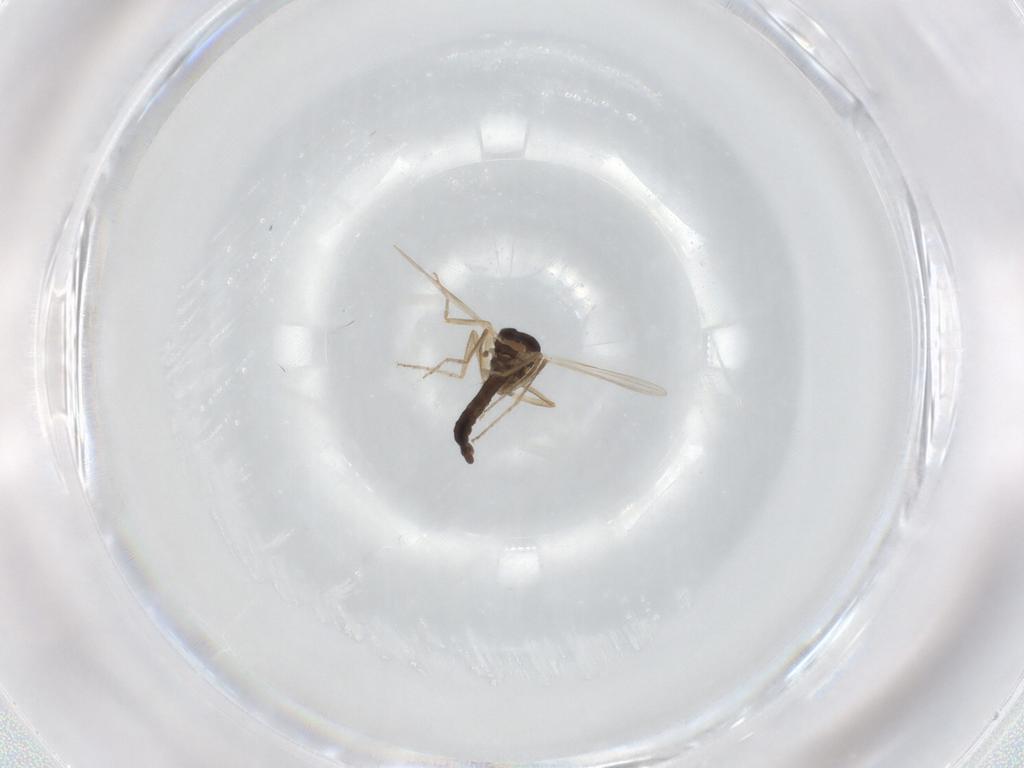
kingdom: Animalia
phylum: Arthropoda
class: Insecta
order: Diptera
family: Ceratopogonidae
